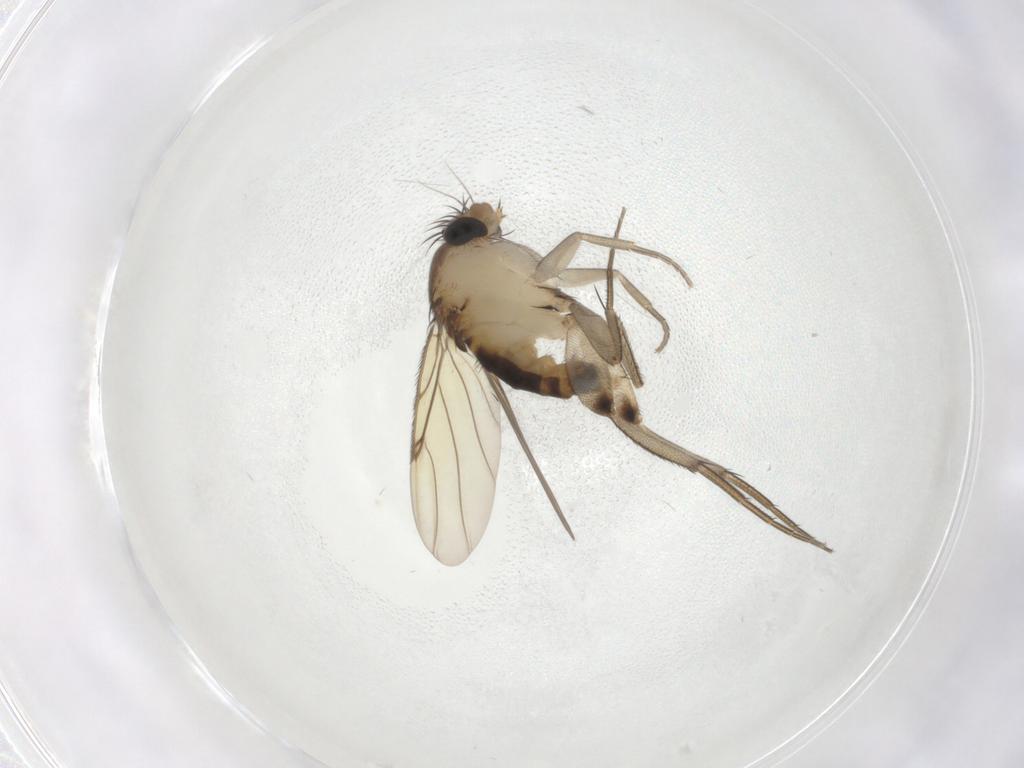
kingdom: Animalia
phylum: Arthropoda
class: Insecta
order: Diptera
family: Phoridae
